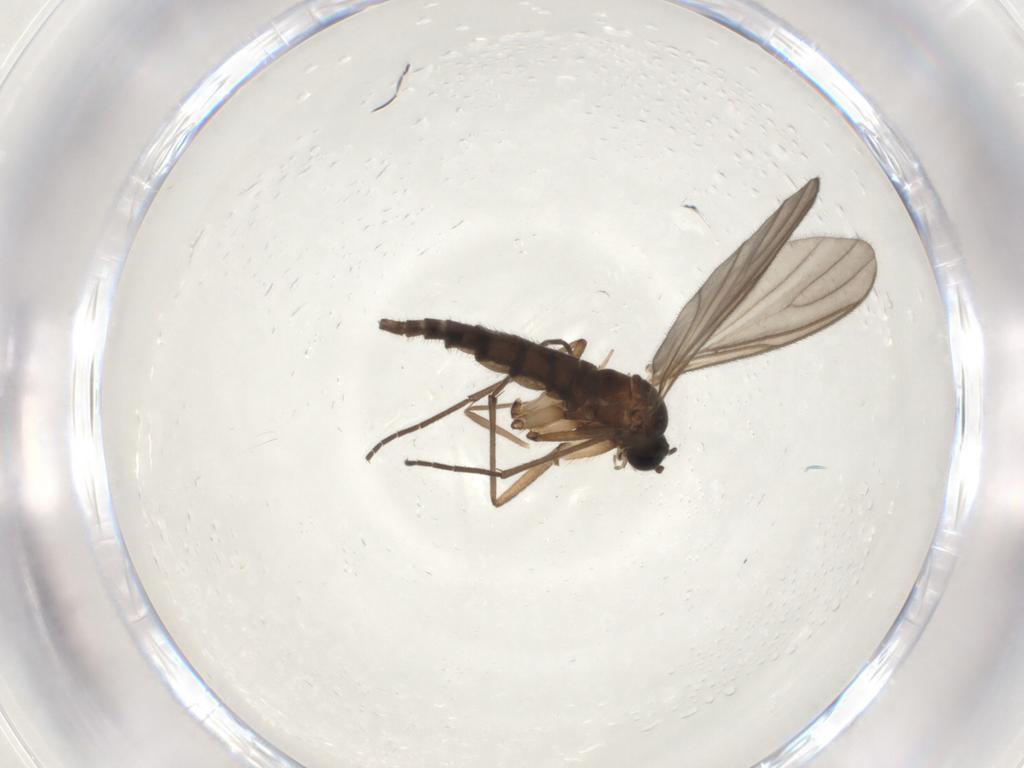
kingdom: Animalia
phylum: Arthropoda
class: Insecta
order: Diptera
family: Sciaridae
